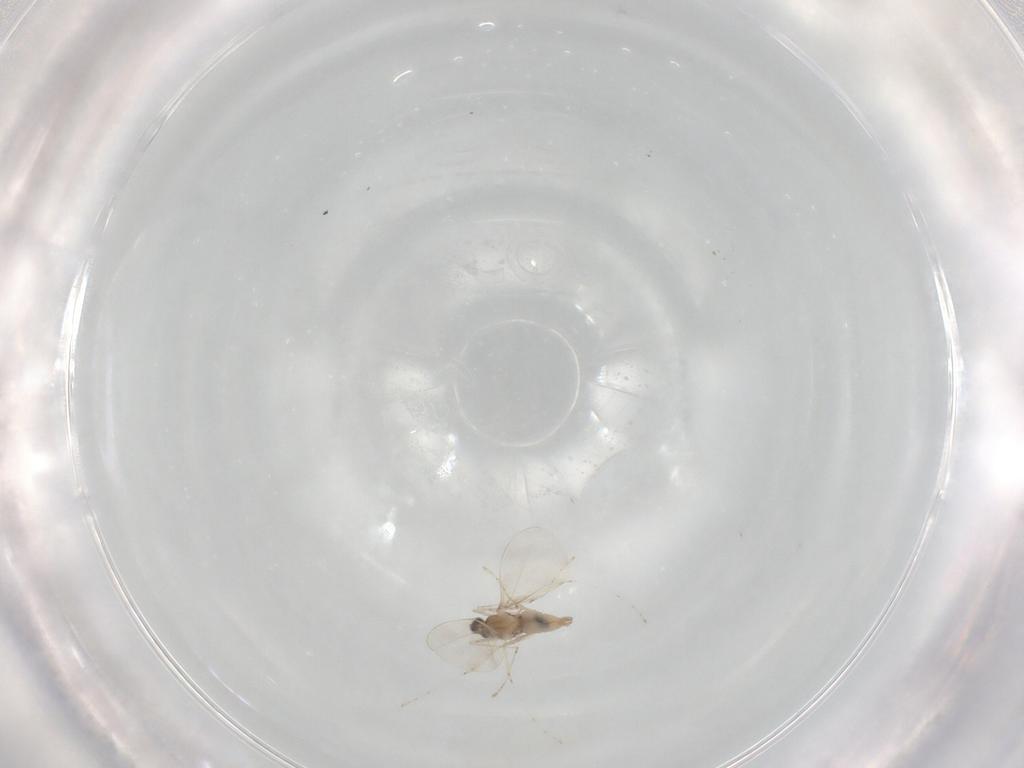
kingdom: Animalia
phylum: Arthropoda
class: Insecta
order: Diptera
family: Cecidomyiidae
